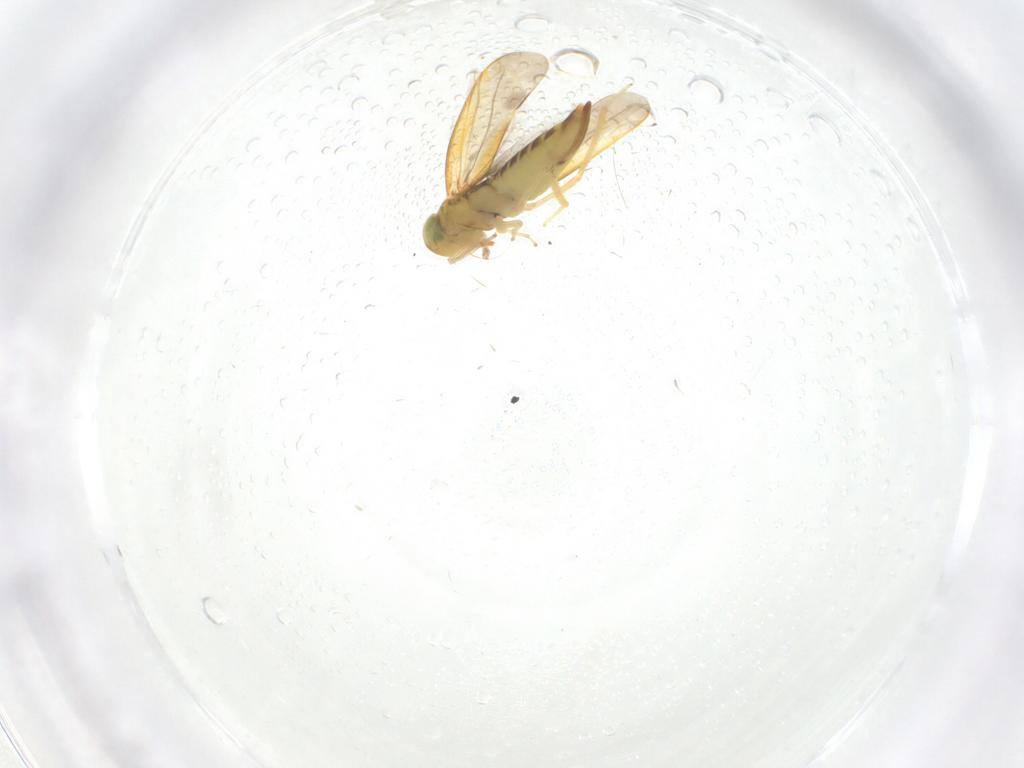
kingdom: Animalia
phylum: Arthropoda
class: Insecta
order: Hemiptera
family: Cicadellidae
